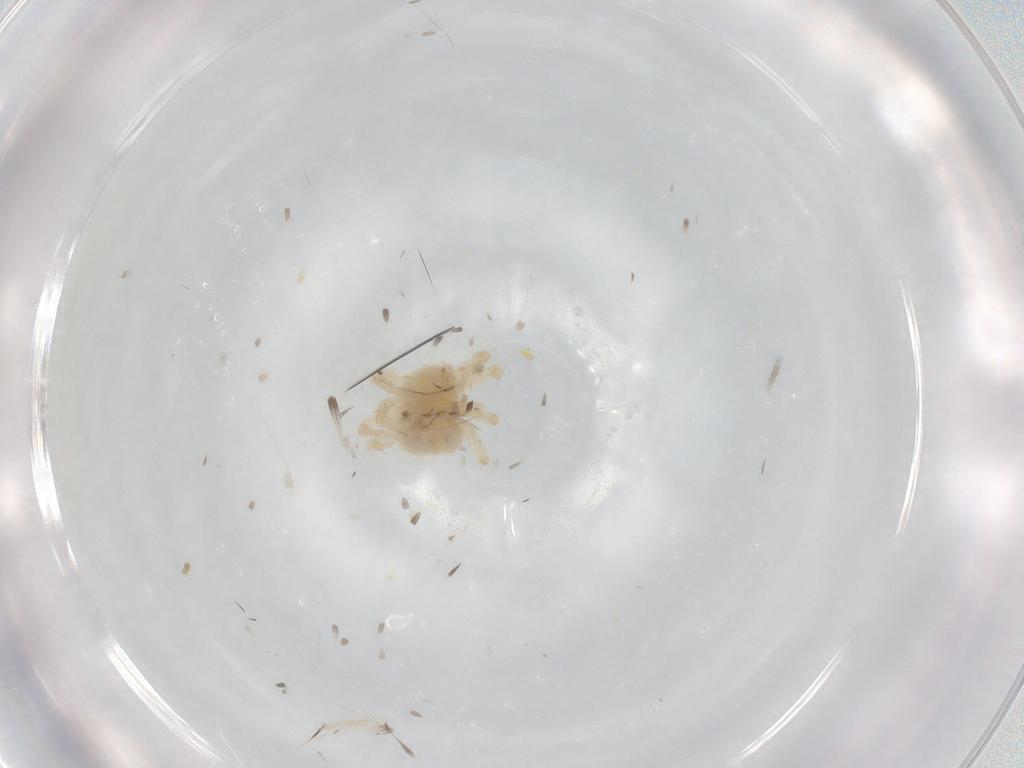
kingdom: Animalia
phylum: Arthropoda
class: Arachnida
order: Trombidiformes
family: Anystidae
